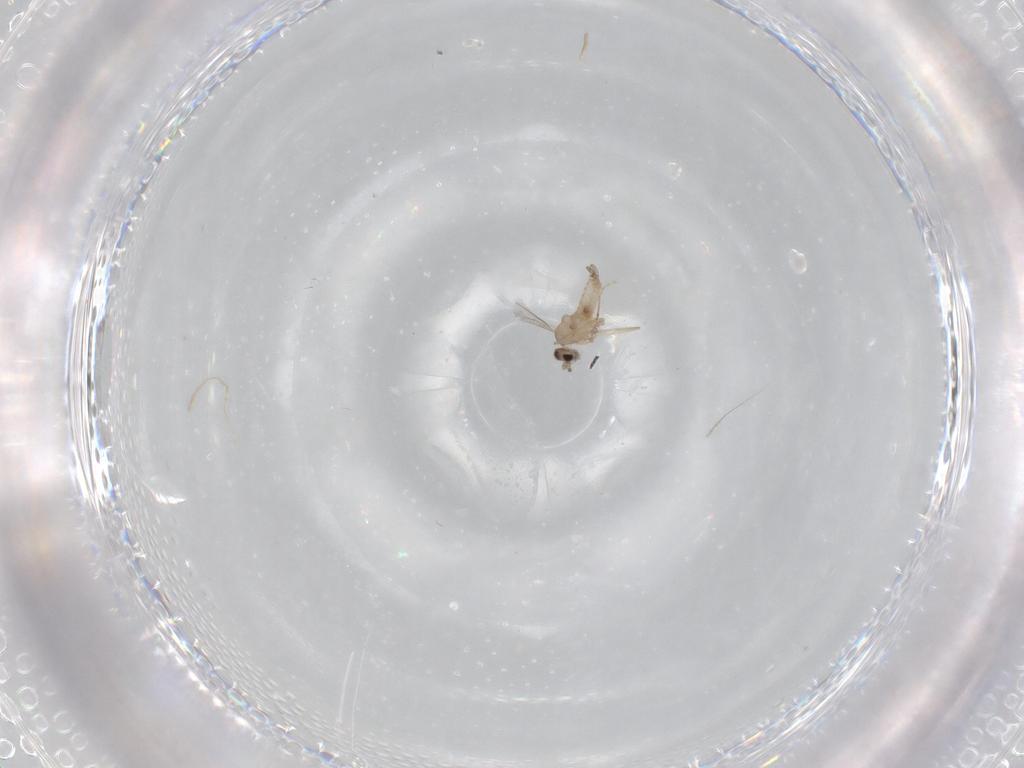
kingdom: Animalia
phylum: Arthropoda
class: Insecta
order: Diptera
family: Cecidomyiidae
